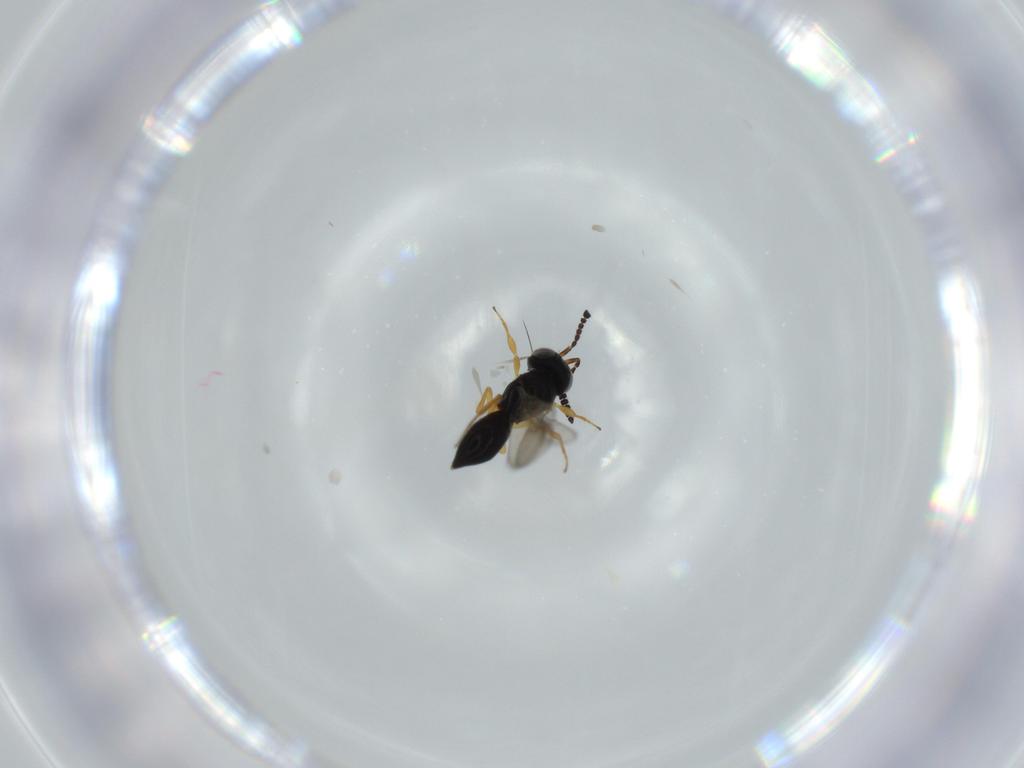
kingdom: Animalia
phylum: Arthropoda
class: Insecta
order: Hymenoptera
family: Scelionidae
